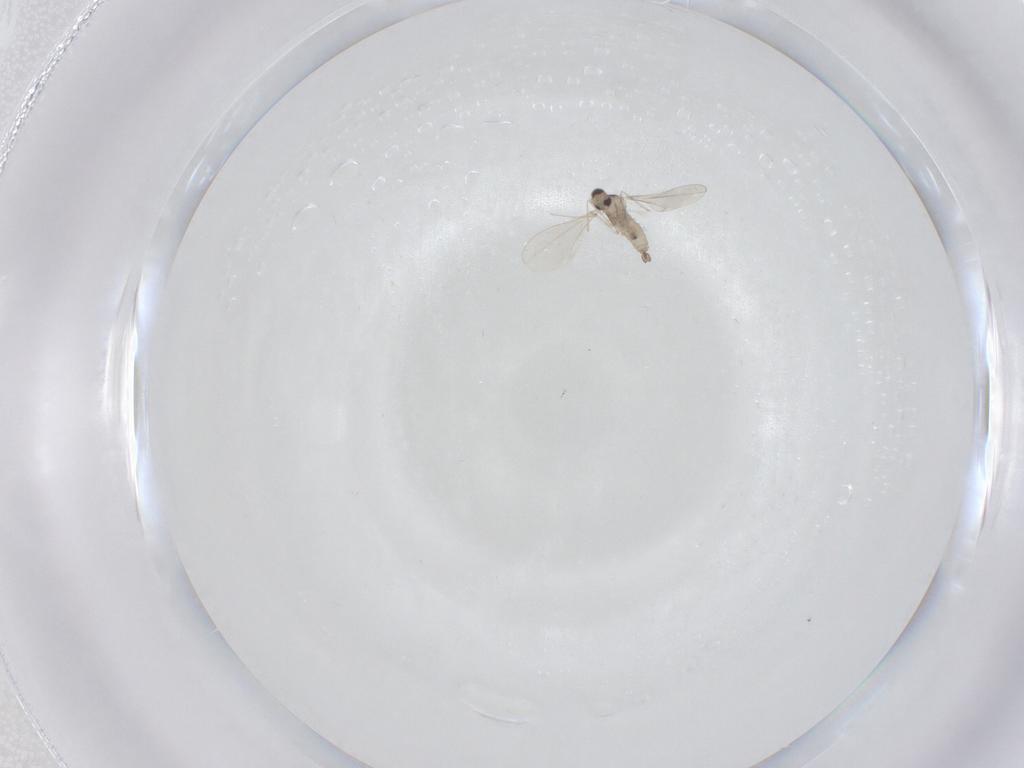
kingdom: Animalia
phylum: Arthropoda
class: Insecta
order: Diptera
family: Cecidomyiidae
